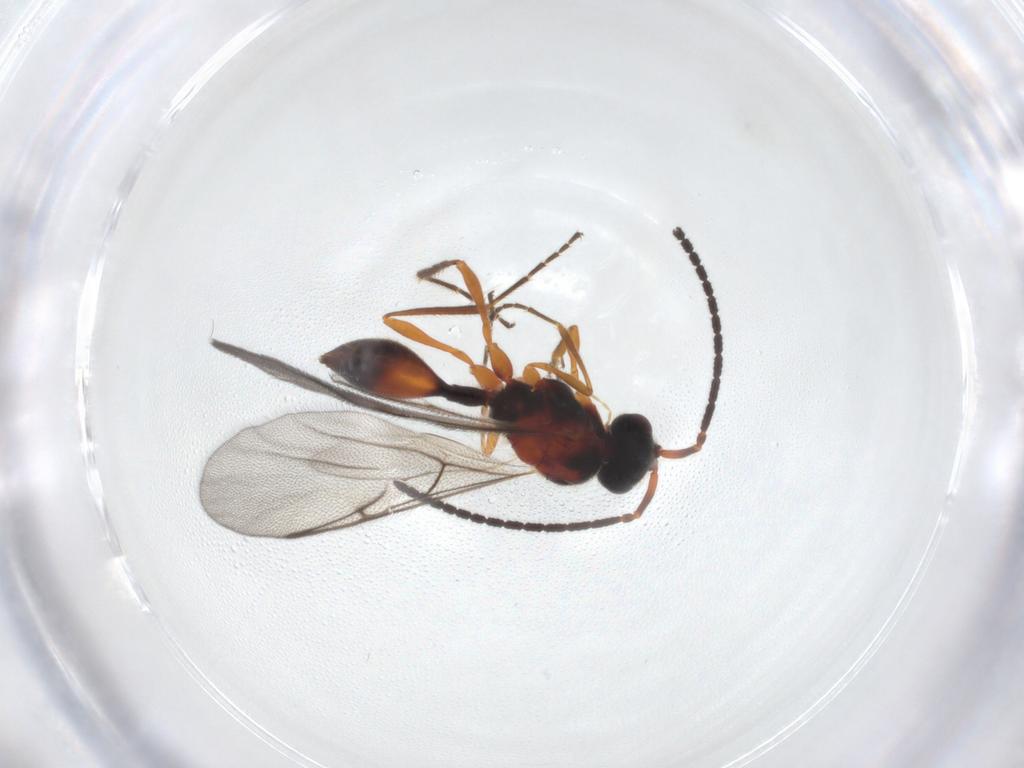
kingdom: Animalia
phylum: Arthropoda
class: Insecta
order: Hymenoptera
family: Diapriidae
